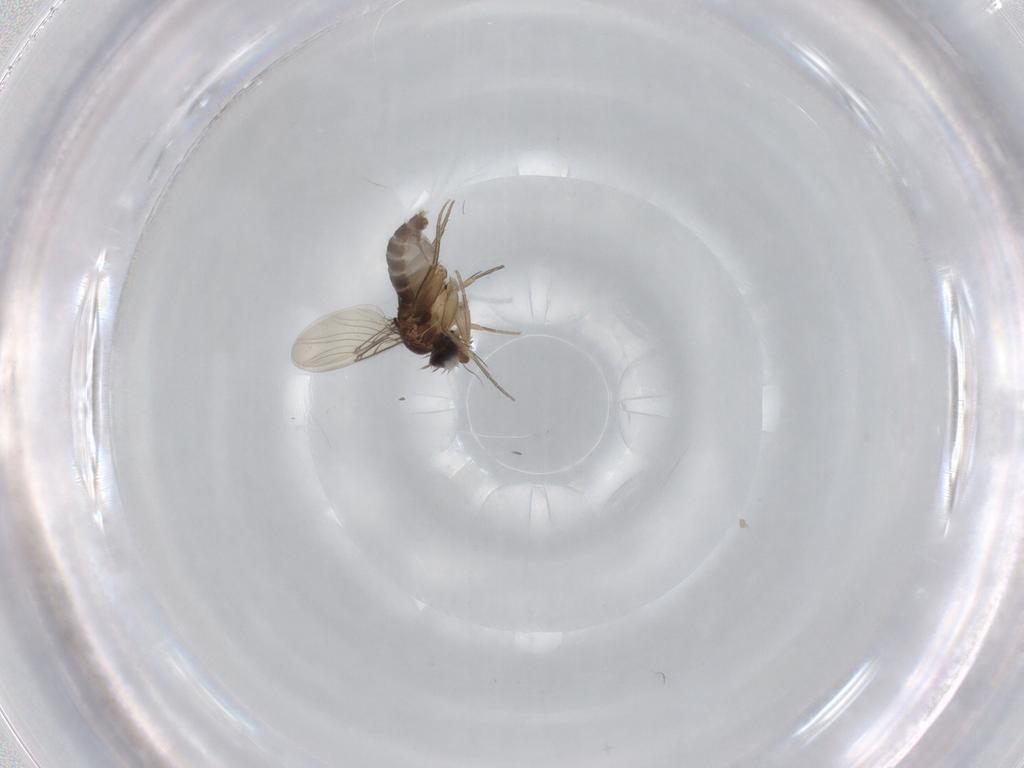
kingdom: Animalia
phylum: Arthropoda
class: Insecta
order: Diptera
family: Phoridae
